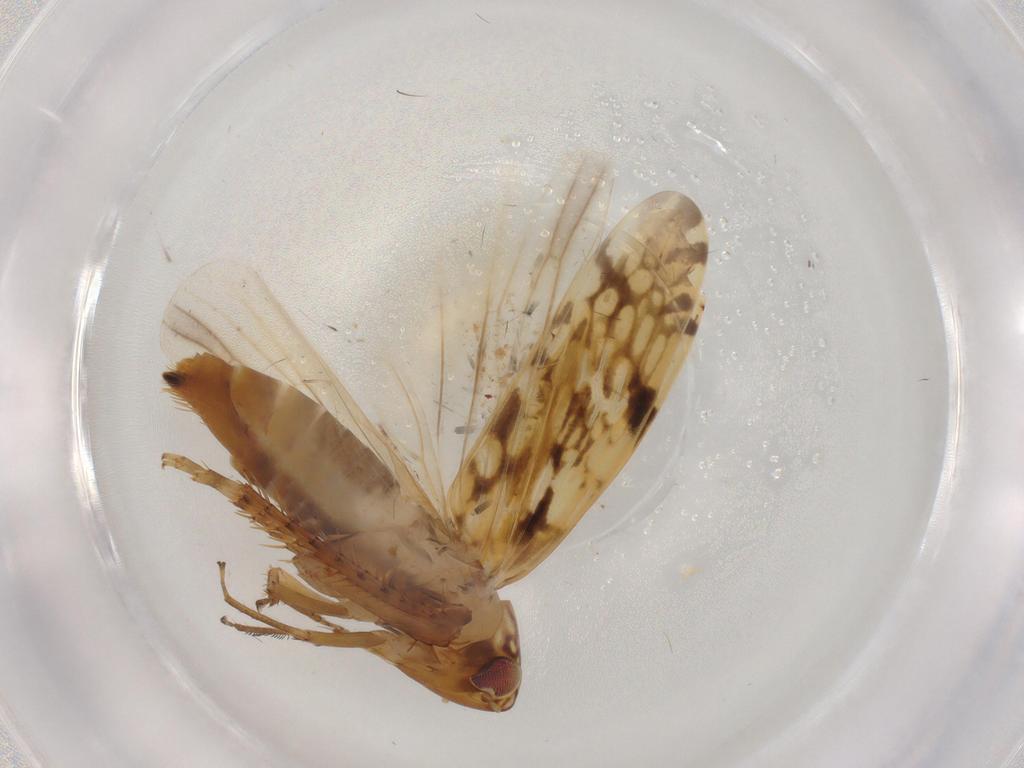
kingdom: Animalia
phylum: Arthropoda
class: Insecta
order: Hemiptera
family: Cicadellidae
